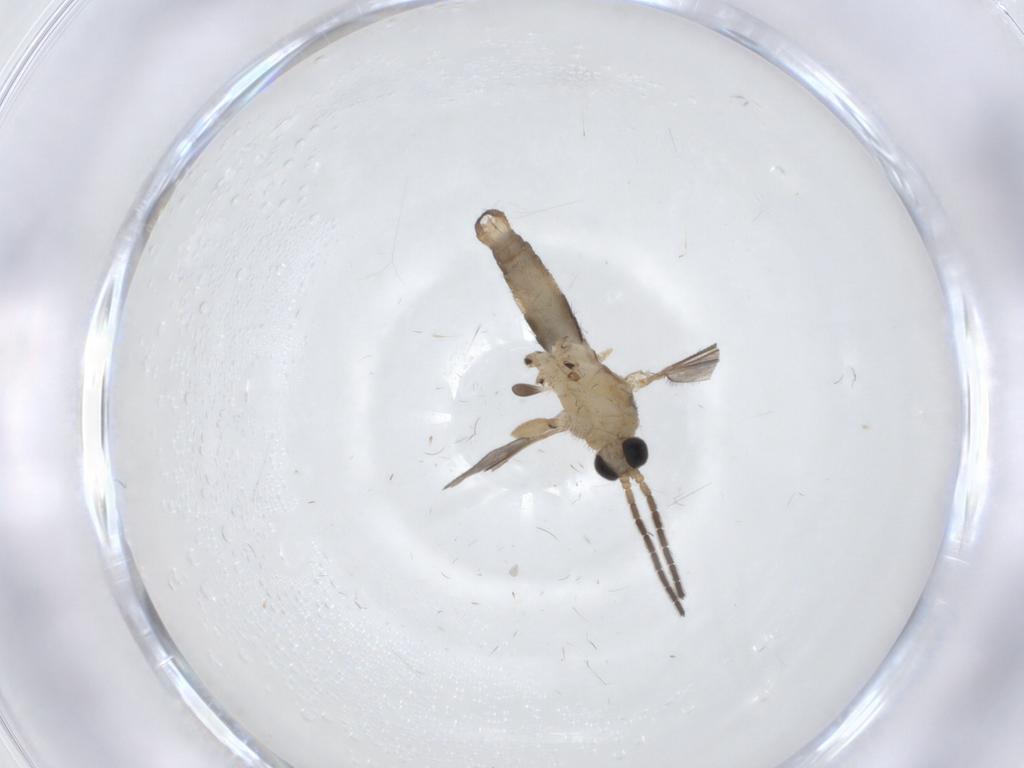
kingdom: Animalia
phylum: Arthropoda
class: Insecta
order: Diptera
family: Sciaridae
